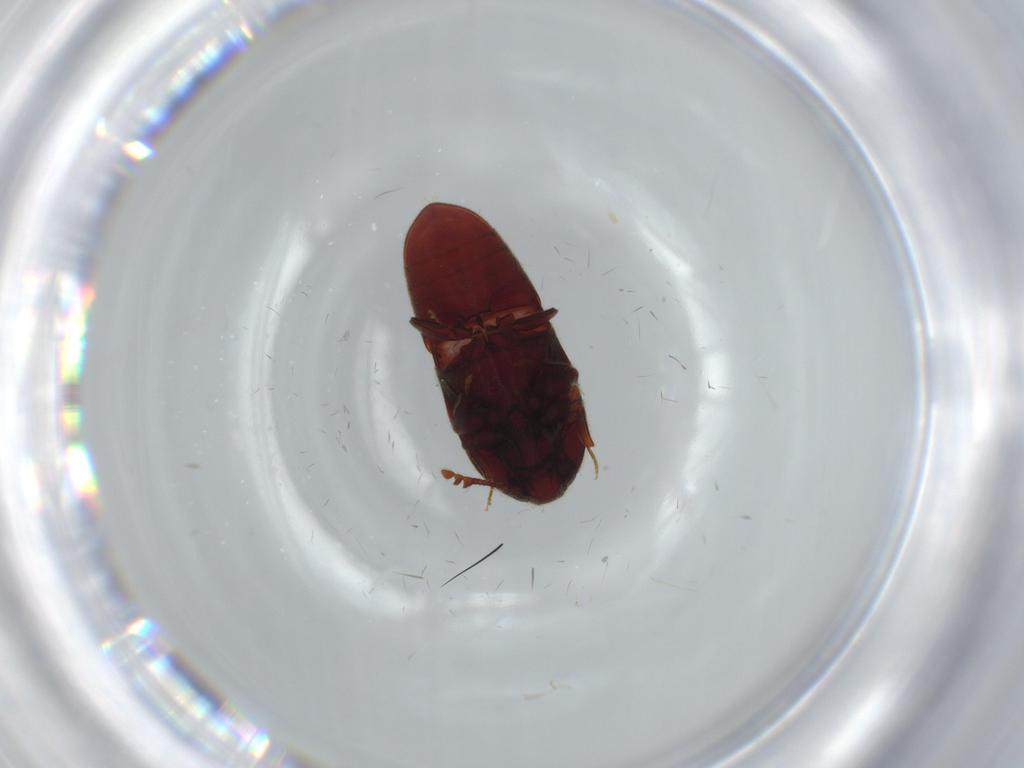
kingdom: Animalia
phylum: Arthropoda
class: Insecta
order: Coleoptera
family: Throscidae
